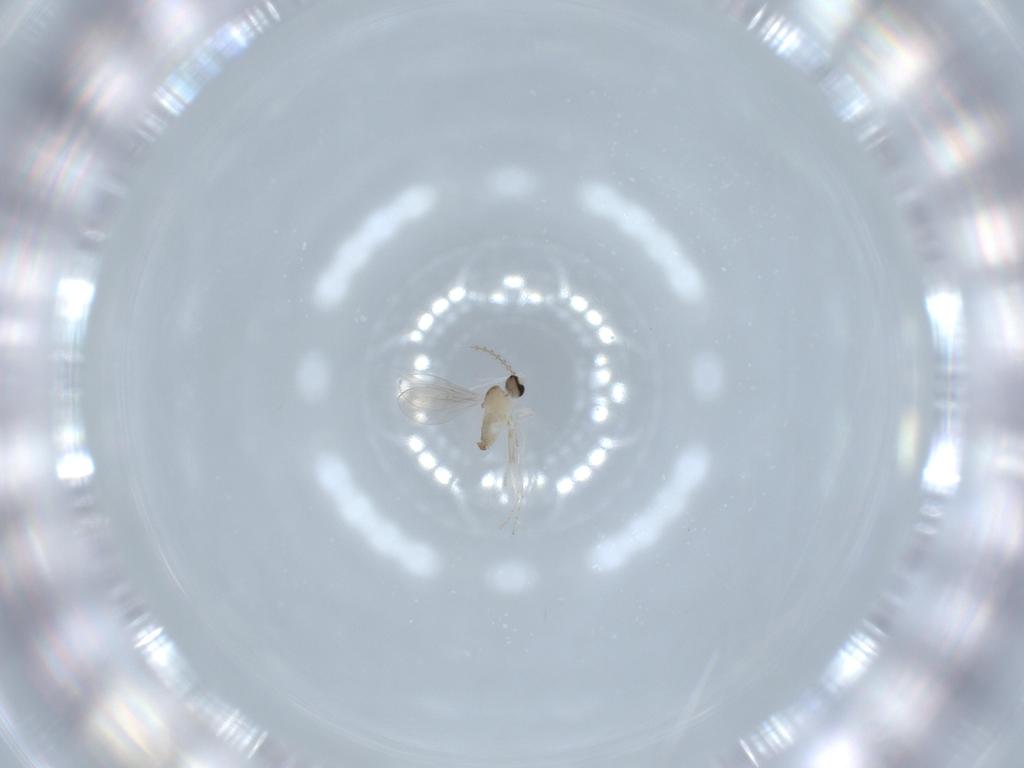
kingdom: Animalia
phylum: Arthropoda
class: Insecta
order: Diptera
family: Cecidomyiidae
